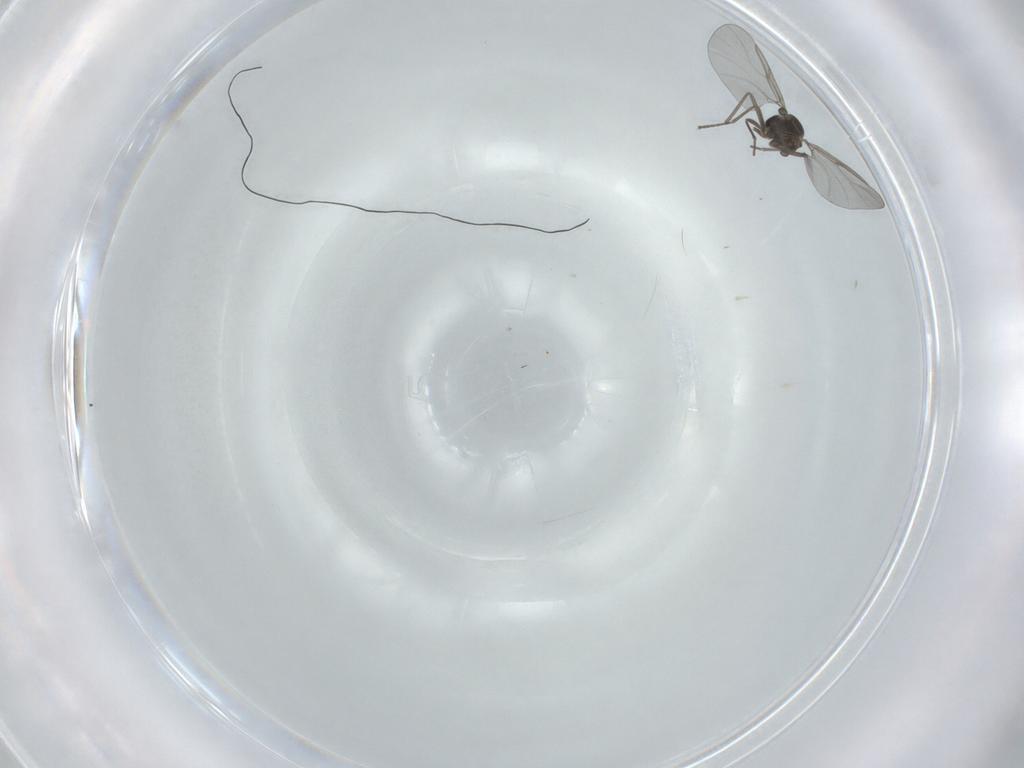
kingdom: Animalia
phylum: Arthropoda
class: Insecta
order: Diptera
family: Cecidomyiidae
